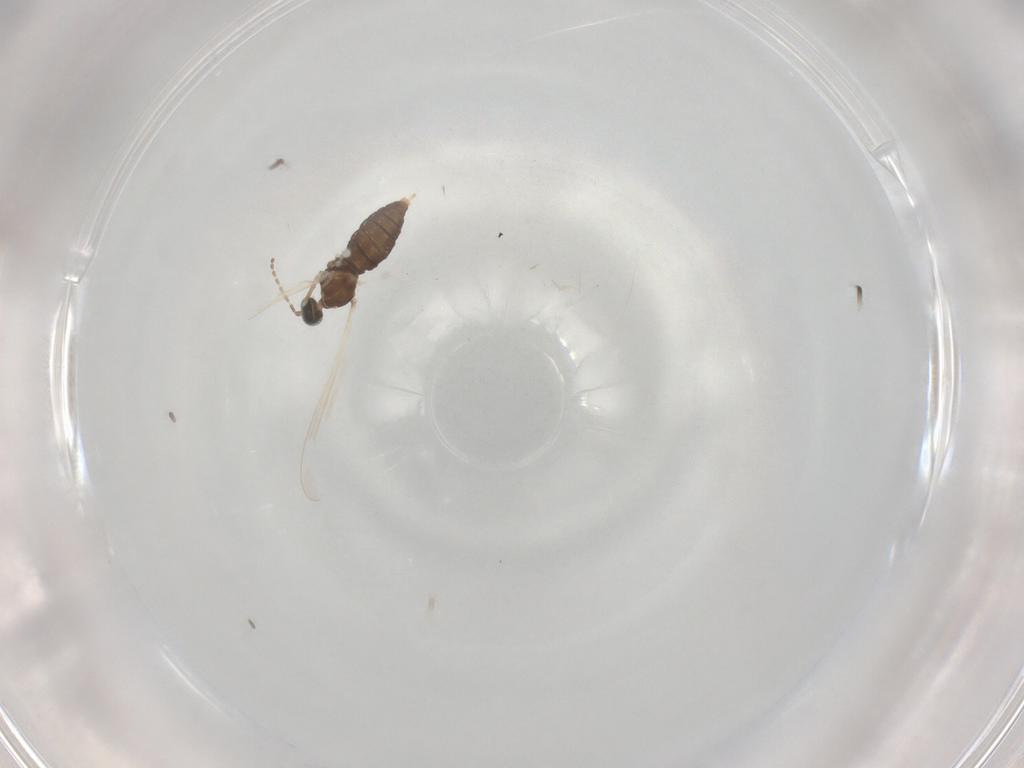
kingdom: Animalia
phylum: Arthropoda
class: Insecta
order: Diptera
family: Cecidomyiidae
